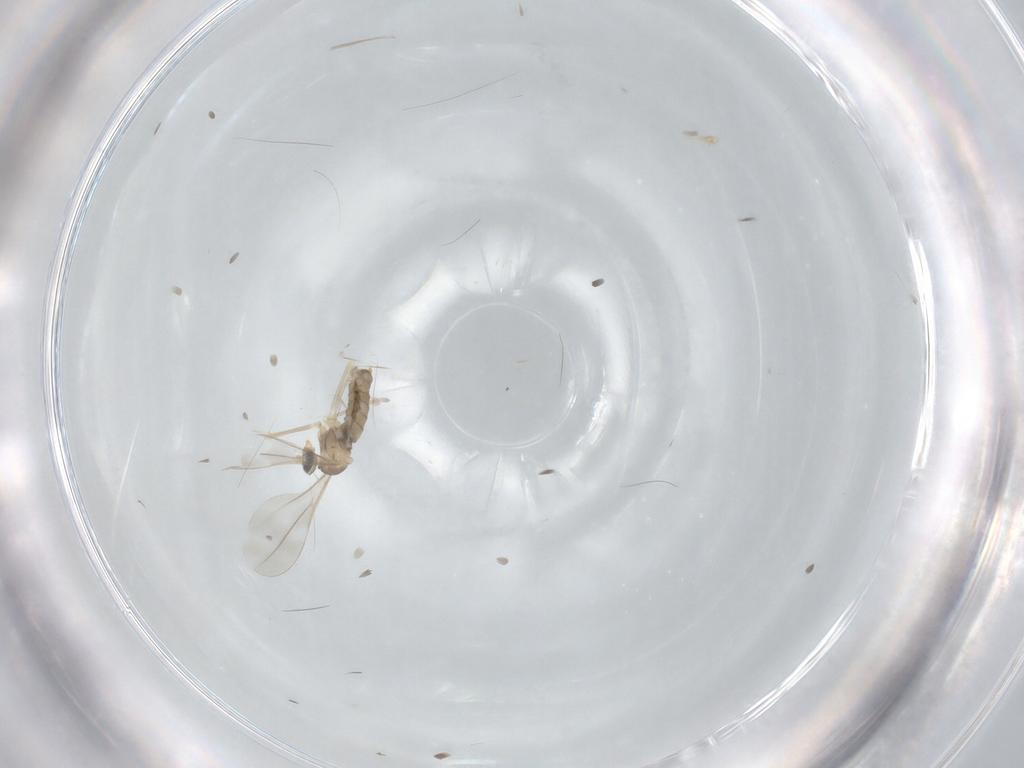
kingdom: Animalia
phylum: Arthropoda
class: Insecta
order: Diptera
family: Cecidomyiidae
